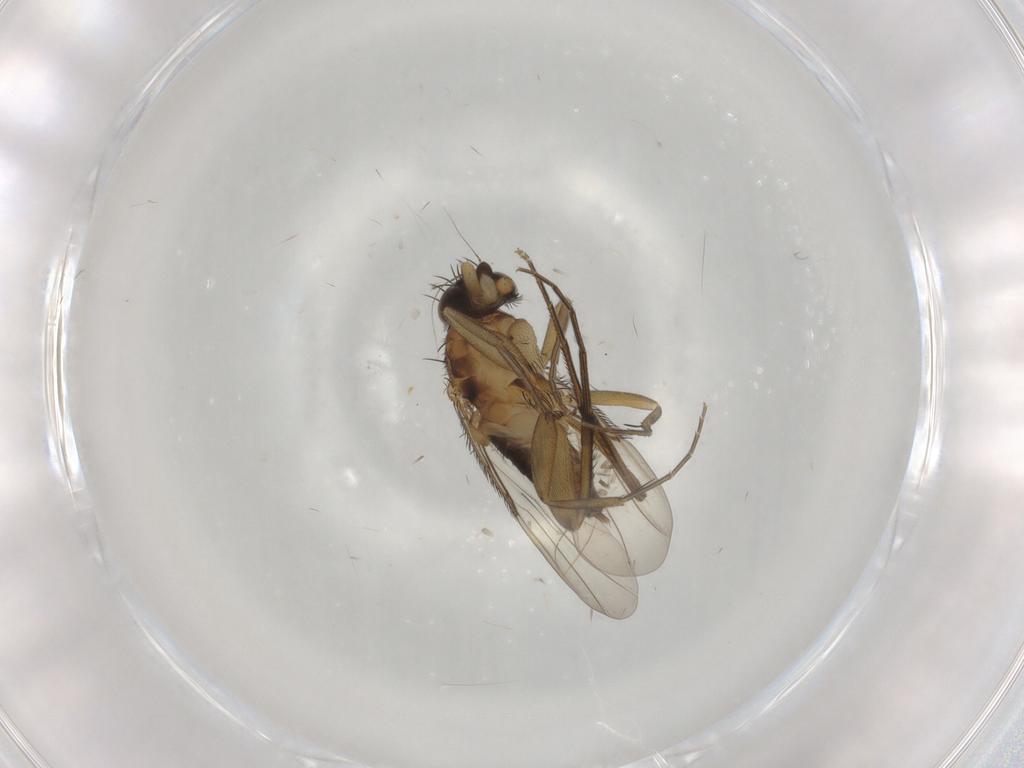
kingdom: Animalia
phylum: Arthropoda
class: Insecta
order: Diptera
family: Phoridae
